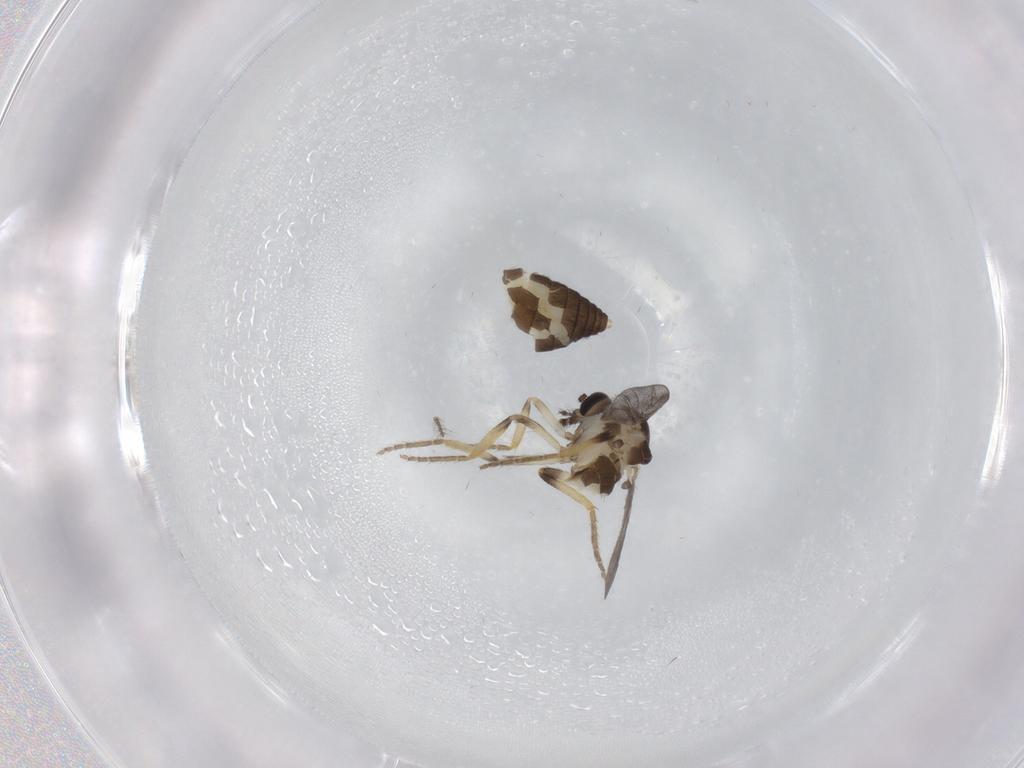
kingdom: Animalia
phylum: Arthropoda
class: Insecta
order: Diptera
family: Ceratopogonidae
